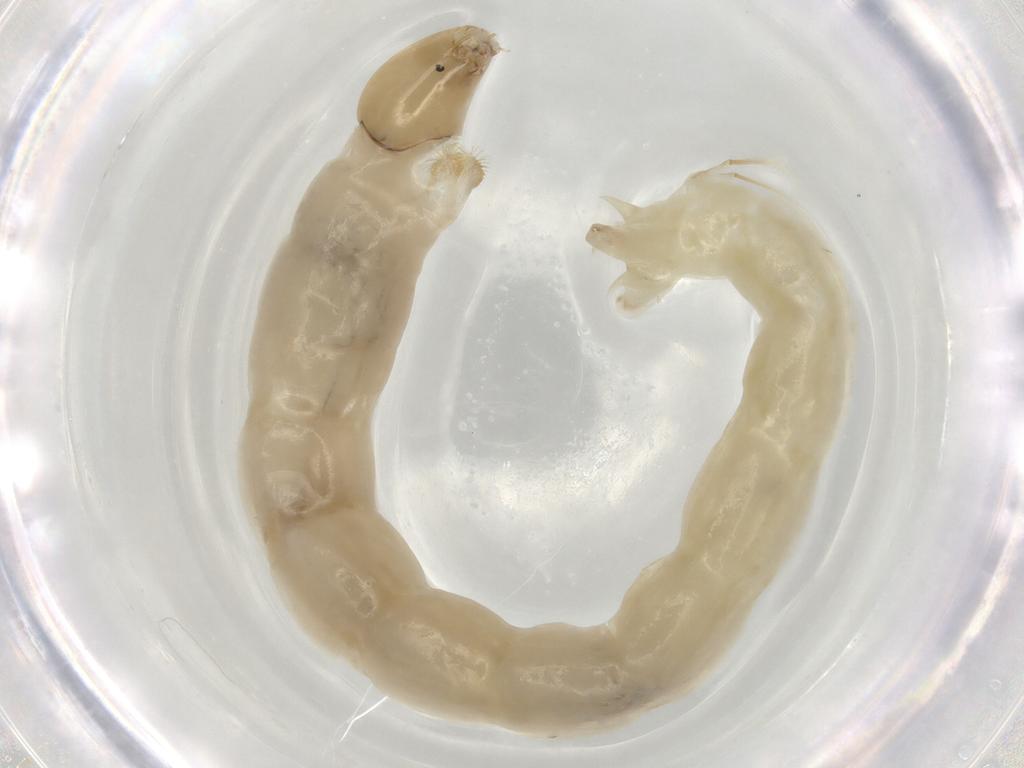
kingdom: Animalia
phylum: Arthropoda
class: Insecta
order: Diptera
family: Chironomidae
